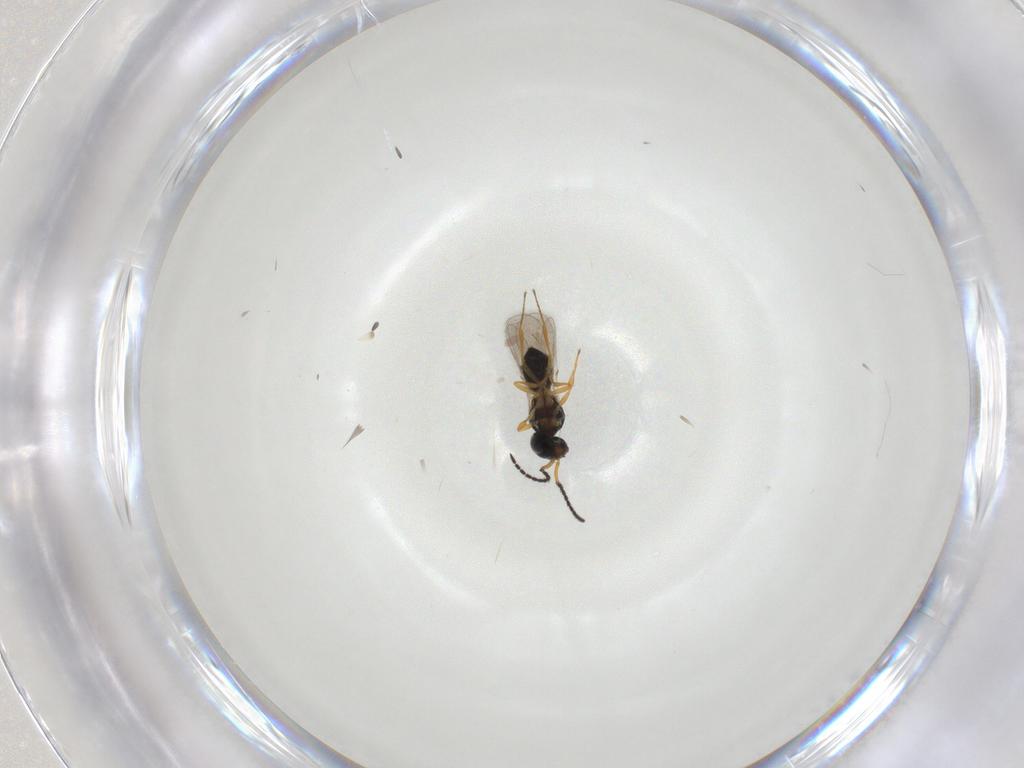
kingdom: Animalia
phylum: Arthropoda
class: Insecta
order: Hymenoptera
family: Scelionidae
